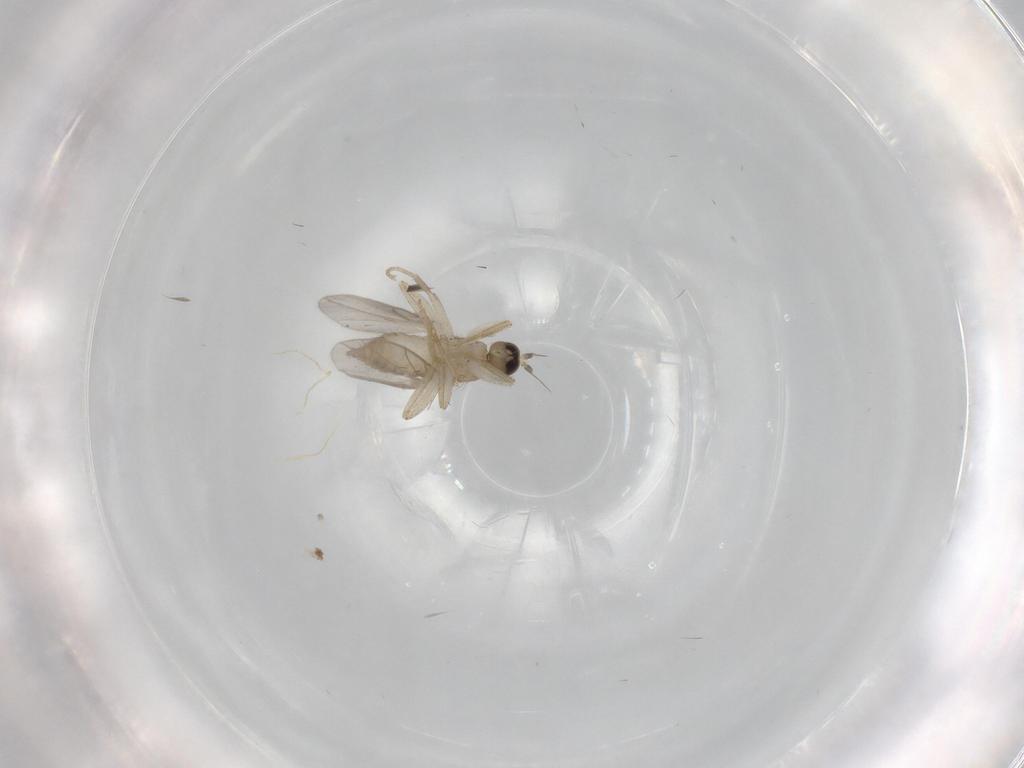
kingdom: Animalia
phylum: Arthropoda
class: Insecta
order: Diptera
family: Hybotidae
